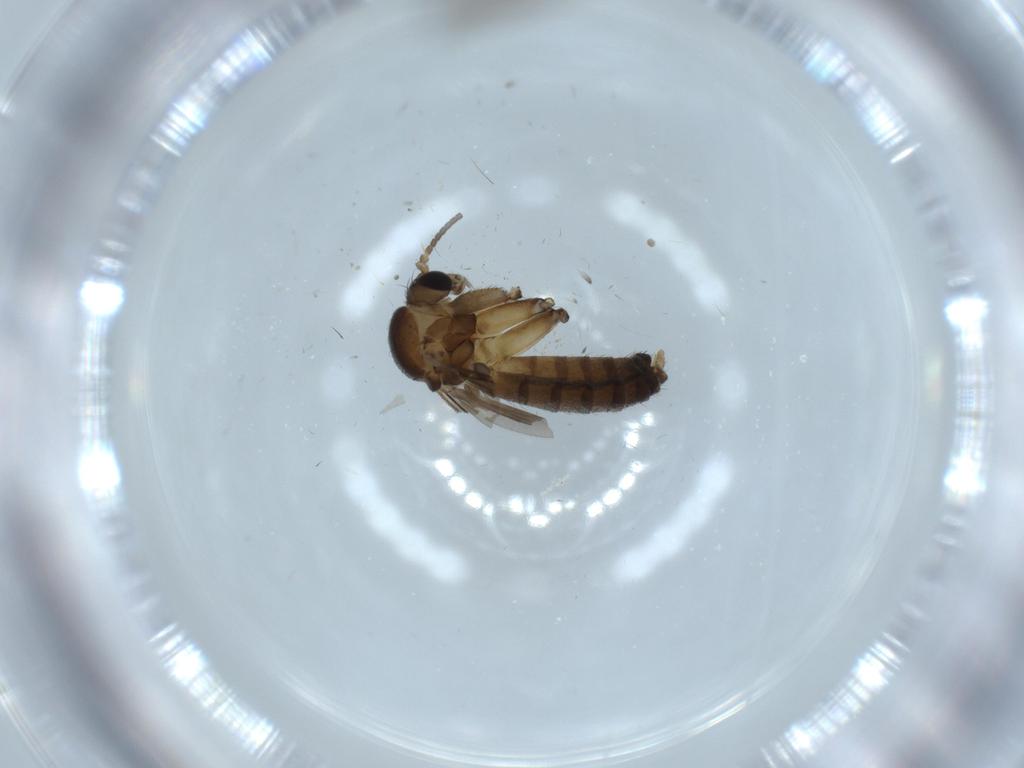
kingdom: Animalia
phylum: Arthropoda
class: Insecta
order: Diptera
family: Mycetophilidae
